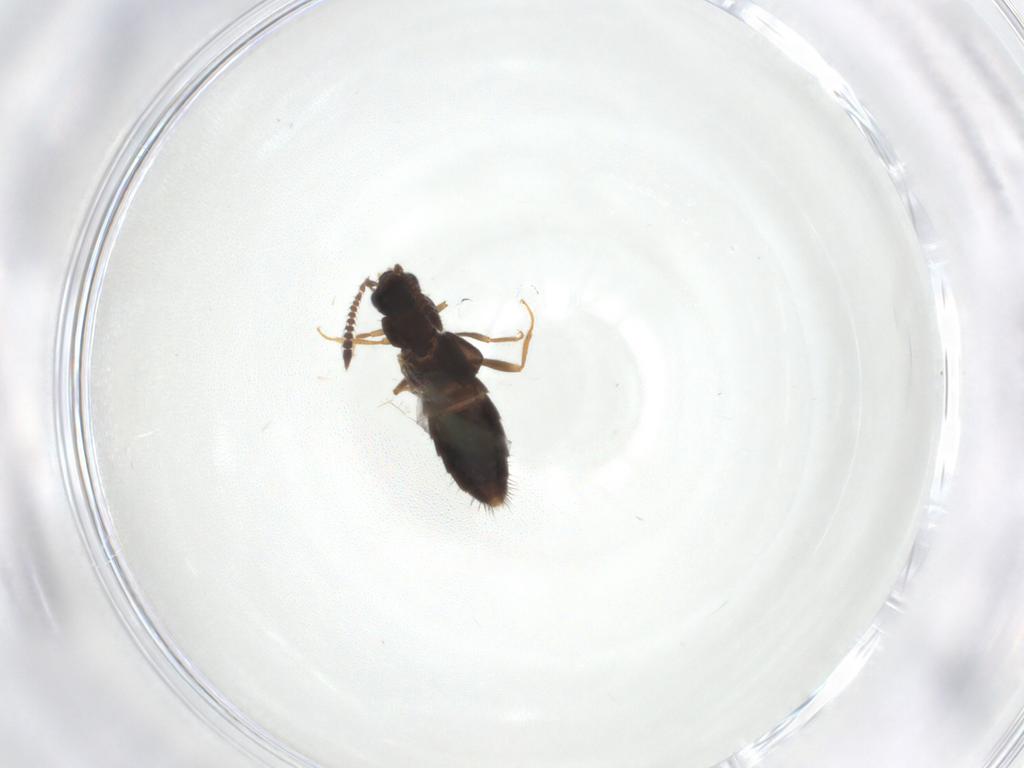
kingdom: Animalia
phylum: Arthropoda
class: Insecta
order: Coleoptera
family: Staphylinidae
